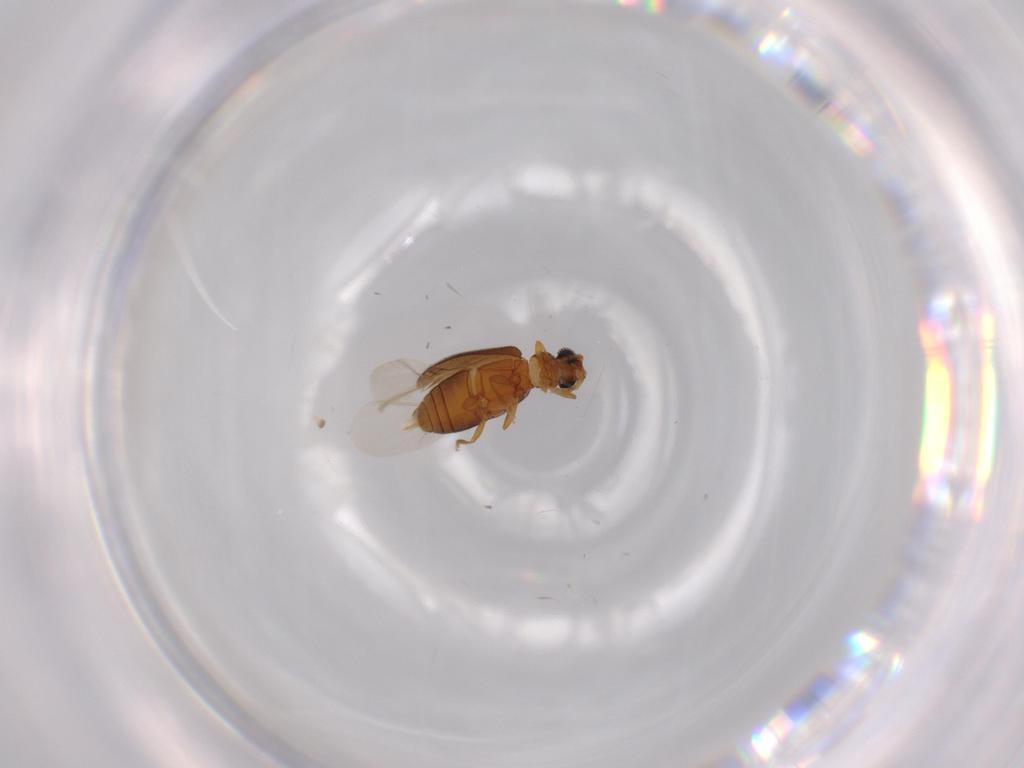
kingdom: Animalia
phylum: Arthropoda
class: Insecta
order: Coleoptera
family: Aderidae
